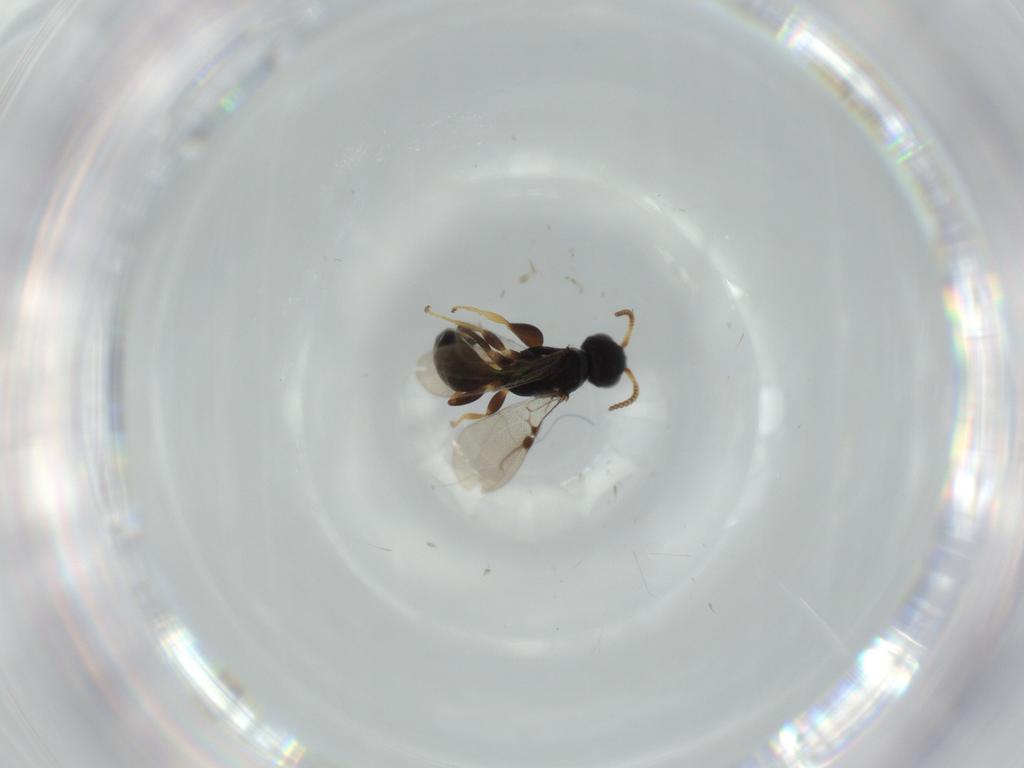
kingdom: Animalia
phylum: Arthropoda
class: Insecta
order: Hymenoptera
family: Bethylidae
